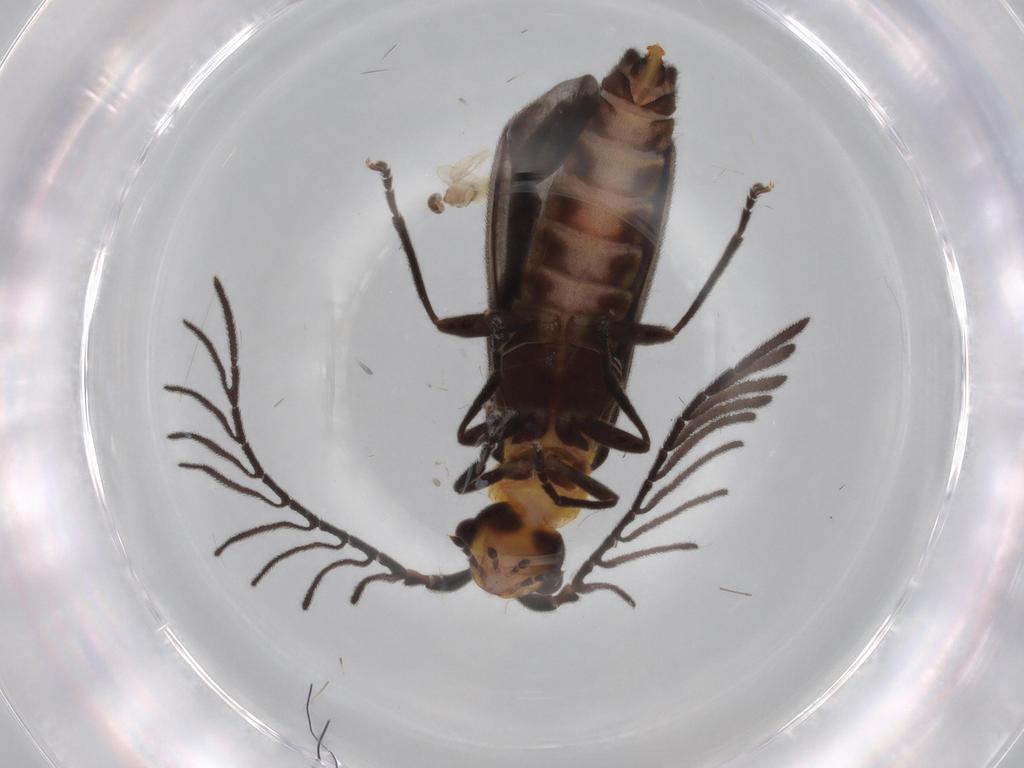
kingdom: Animalia
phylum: Arthropoda
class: Insecta
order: Coleoptera
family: Cantharidae
